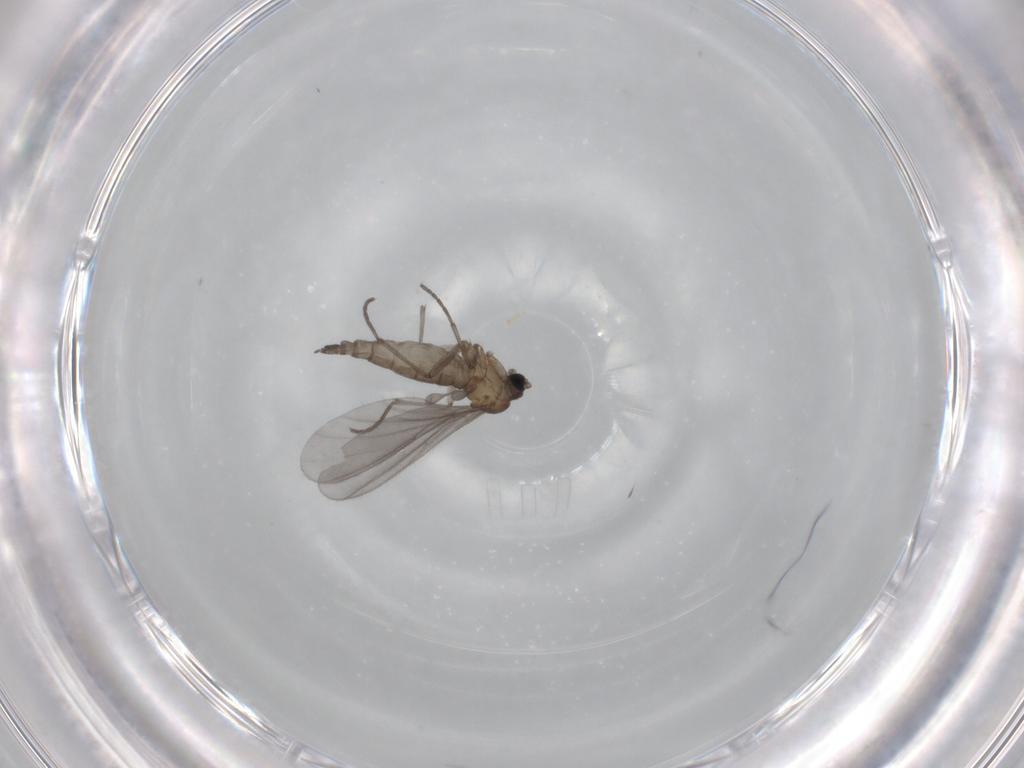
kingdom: Animalia
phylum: Arthropoda
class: Insecta
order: Diptera
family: Sciaridae
